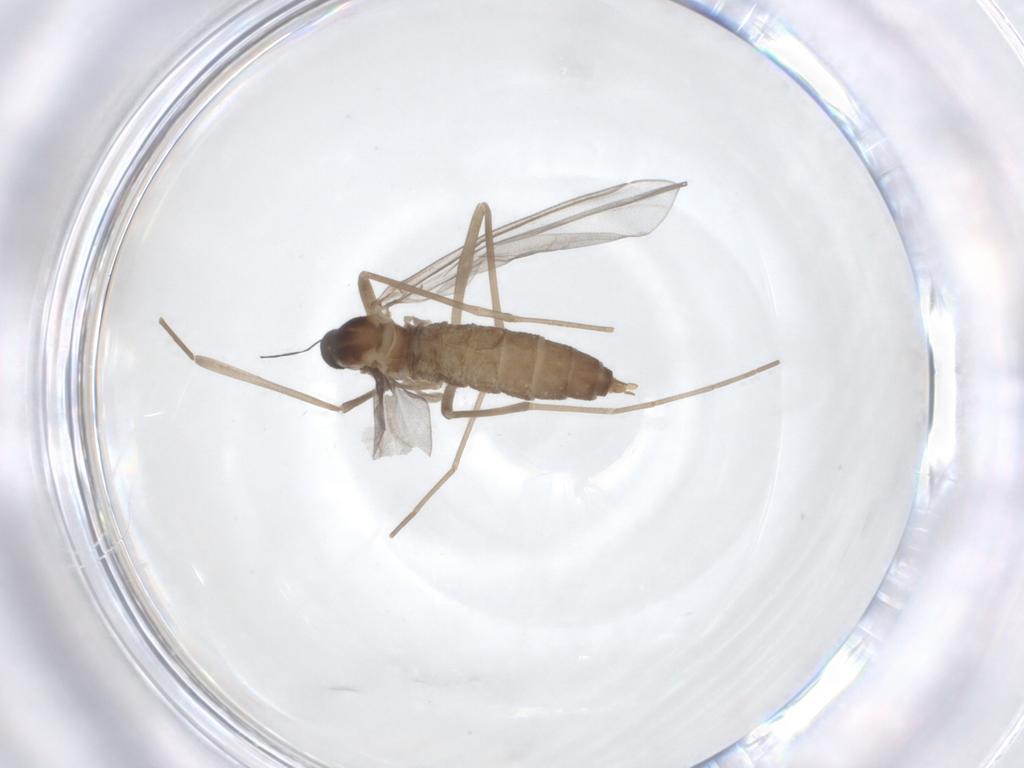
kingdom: Animalia
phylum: Arthropoda
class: Insecta
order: Diptera
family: Cecidomyiidae
